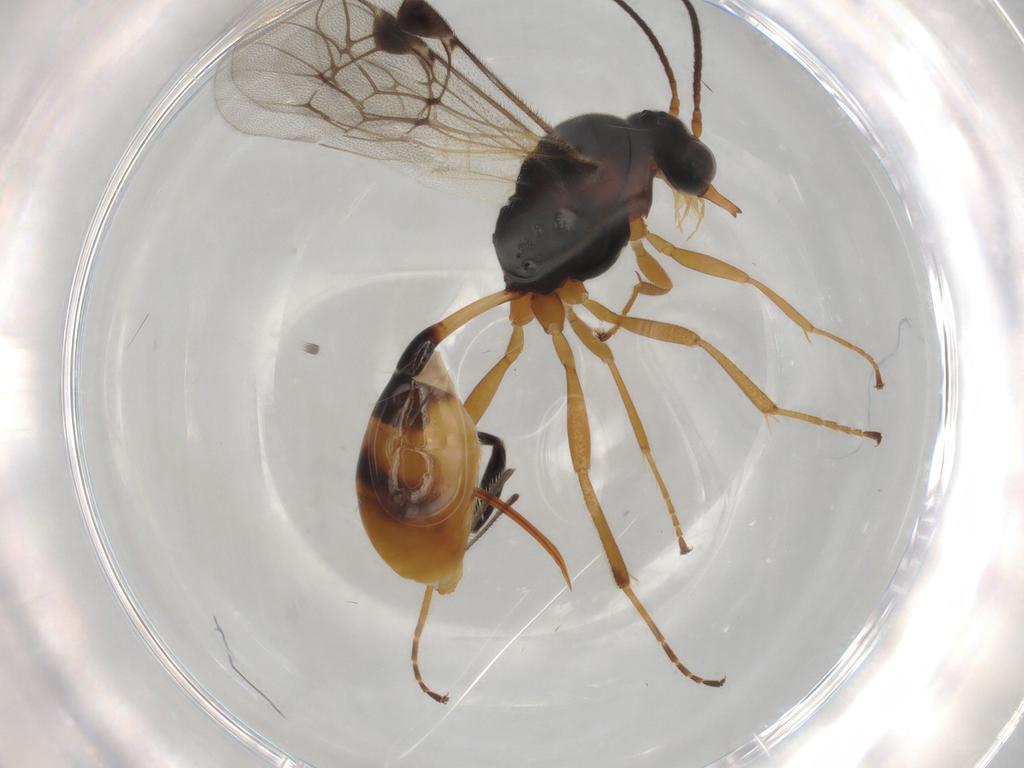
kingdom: Animalia
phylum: Arthropoda
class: Insecta
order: Hymenoptera
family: Ichneumonidae
